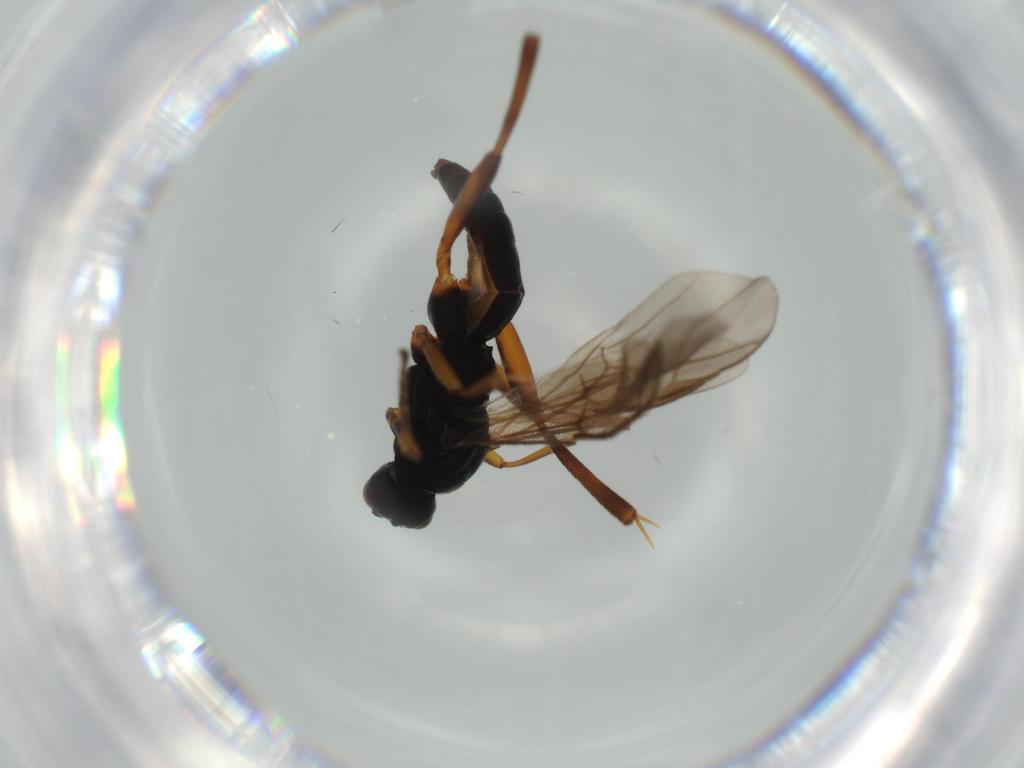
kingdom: Animalia
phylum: Arthropoda
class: Insecta
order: Hymenoptera
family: Braconidae
